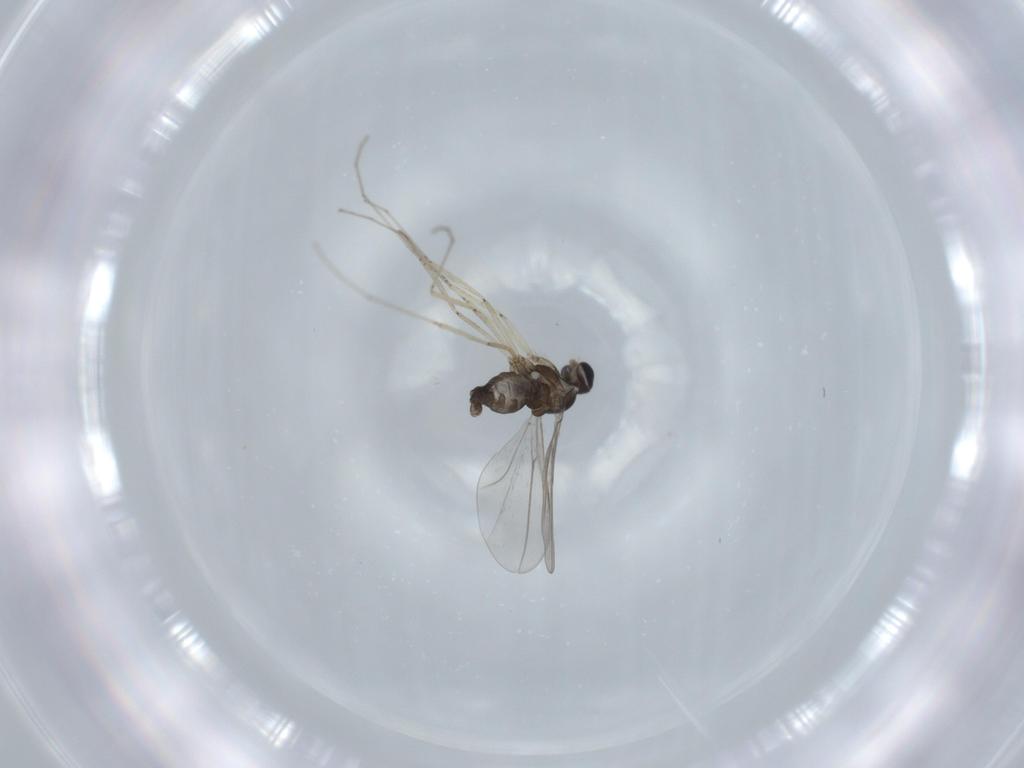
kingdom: Animalia
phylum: Arthropoda
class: Insecta
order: Diptera
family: Cecidomyiidae
